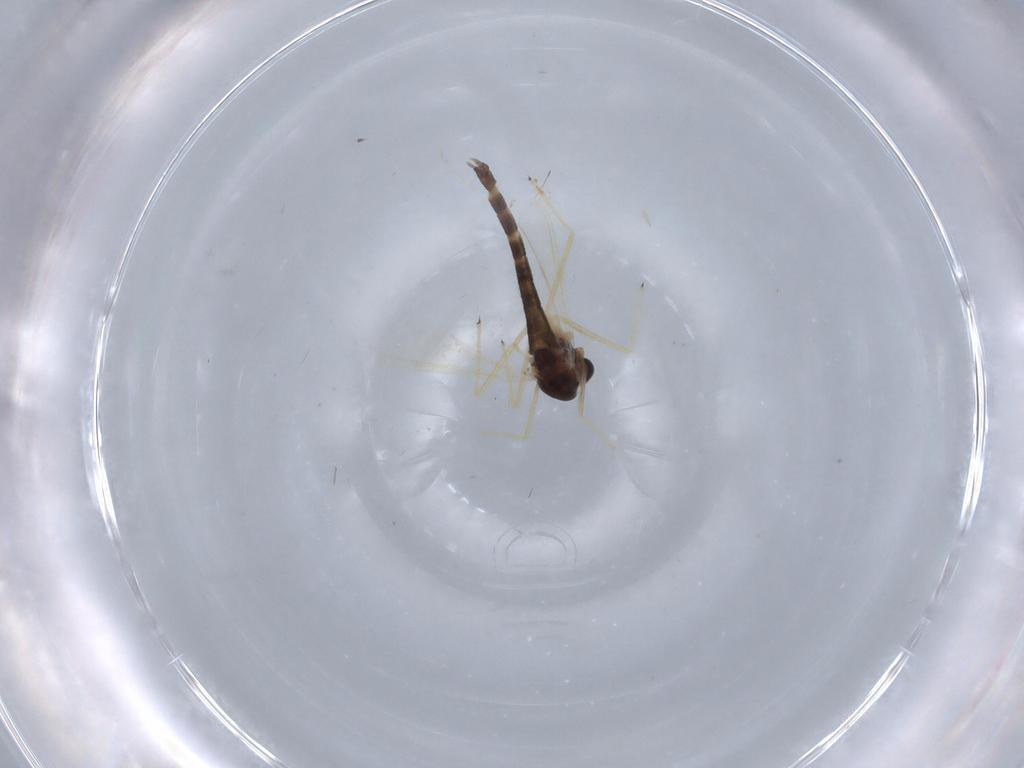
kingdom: Animalia
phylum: Arthropoda
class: Insecta
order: Diptera
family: Chironomidae
